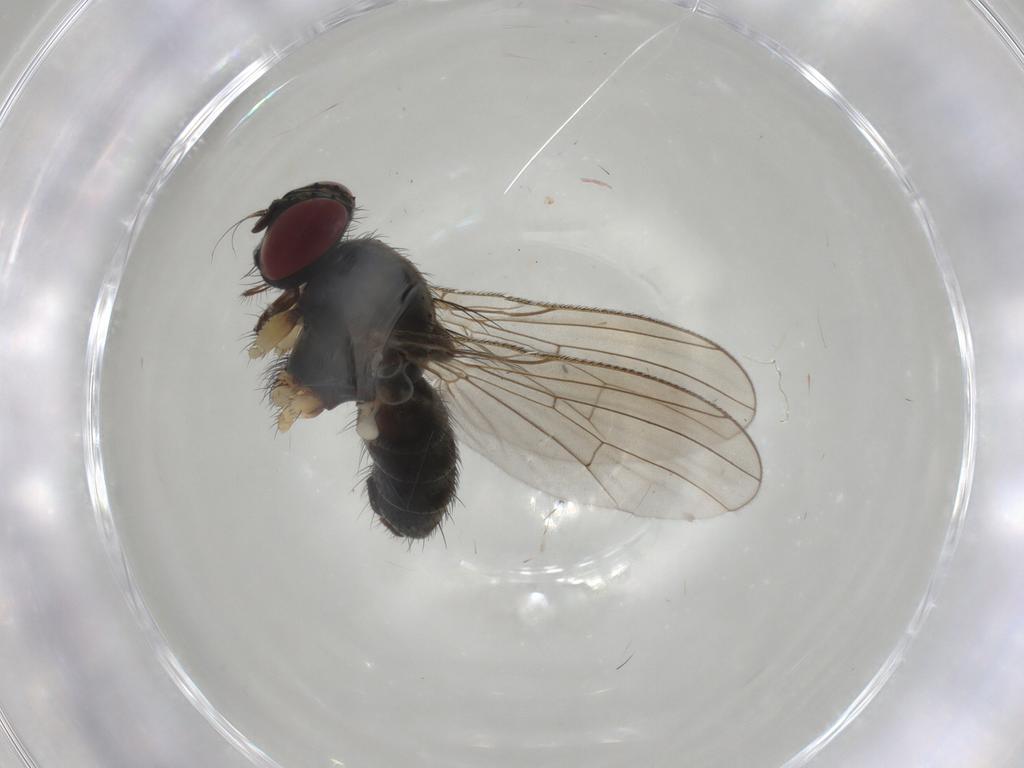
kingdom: Animalia
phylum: Arthropoda
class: Insecta
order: Diptera
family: Muscidae
